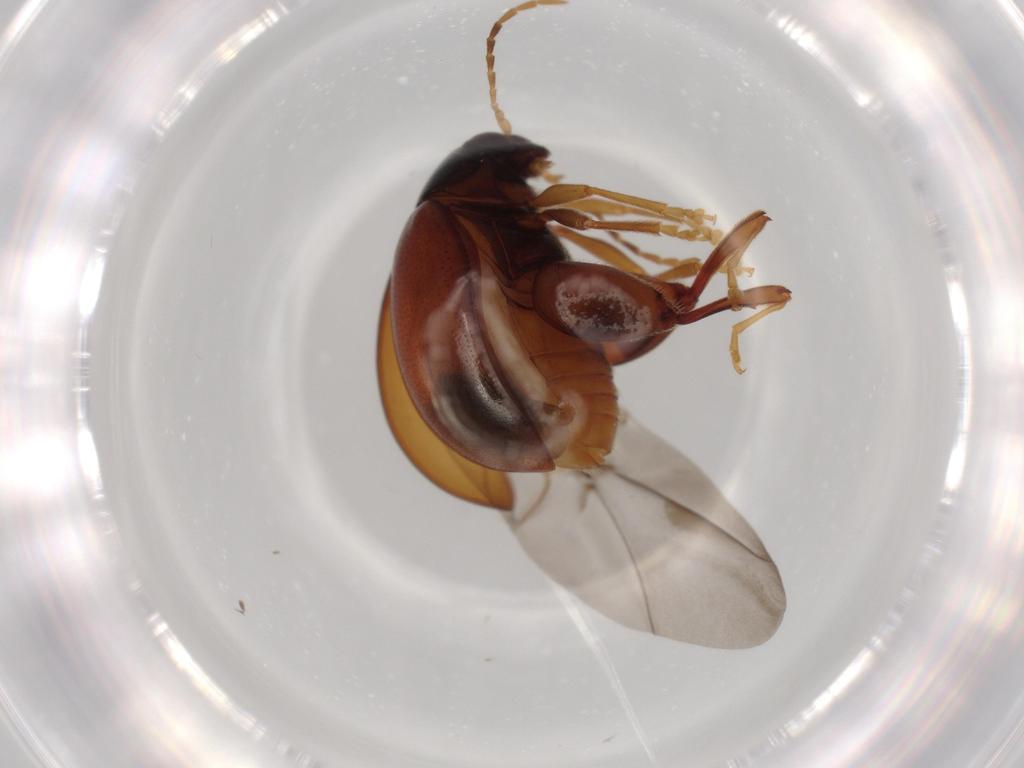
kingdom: Animalia
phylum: Arthropoda
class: Insecta
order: Coleoptera
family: Chrysomelidae
